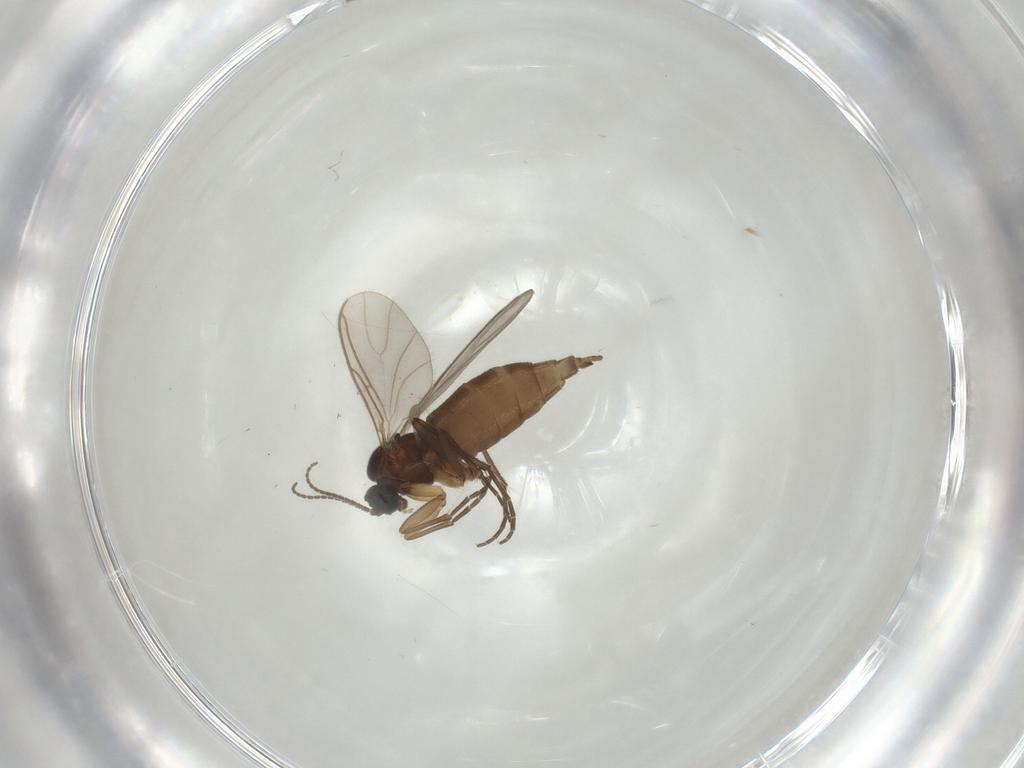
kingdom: Animalia
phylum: Arthropoda
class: Insecta
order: Diptera
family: Sciaridae
